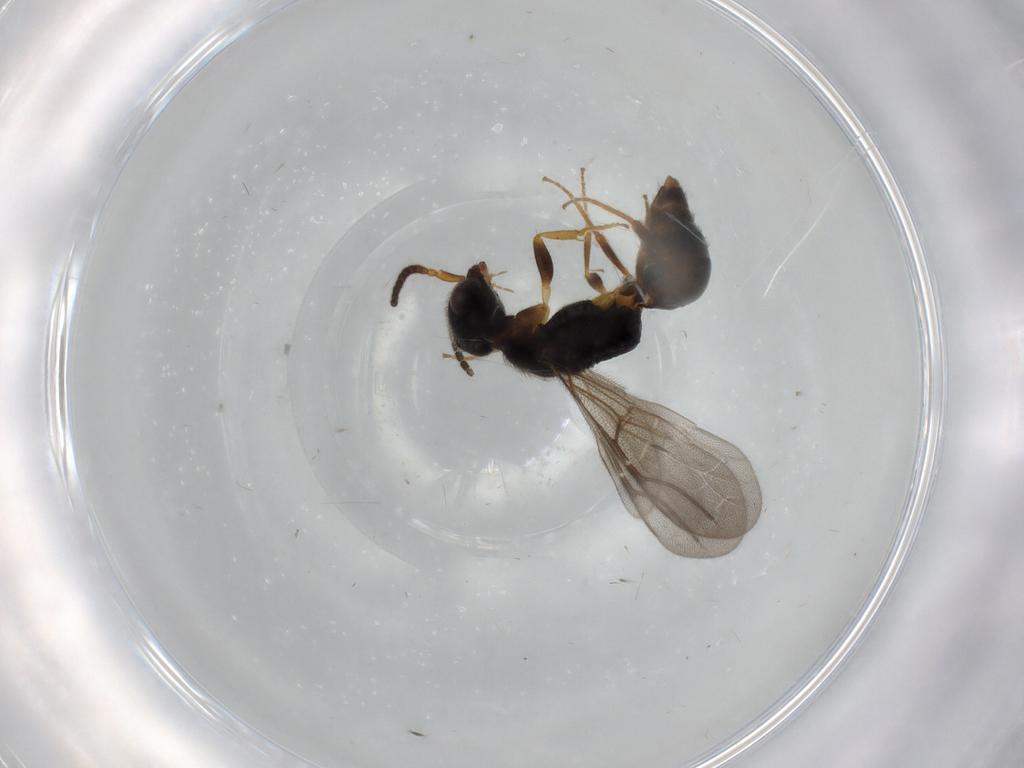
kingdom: Animalia
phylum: Arthropoda
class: Insecta
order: Hymenoptera
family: Bethylidae
